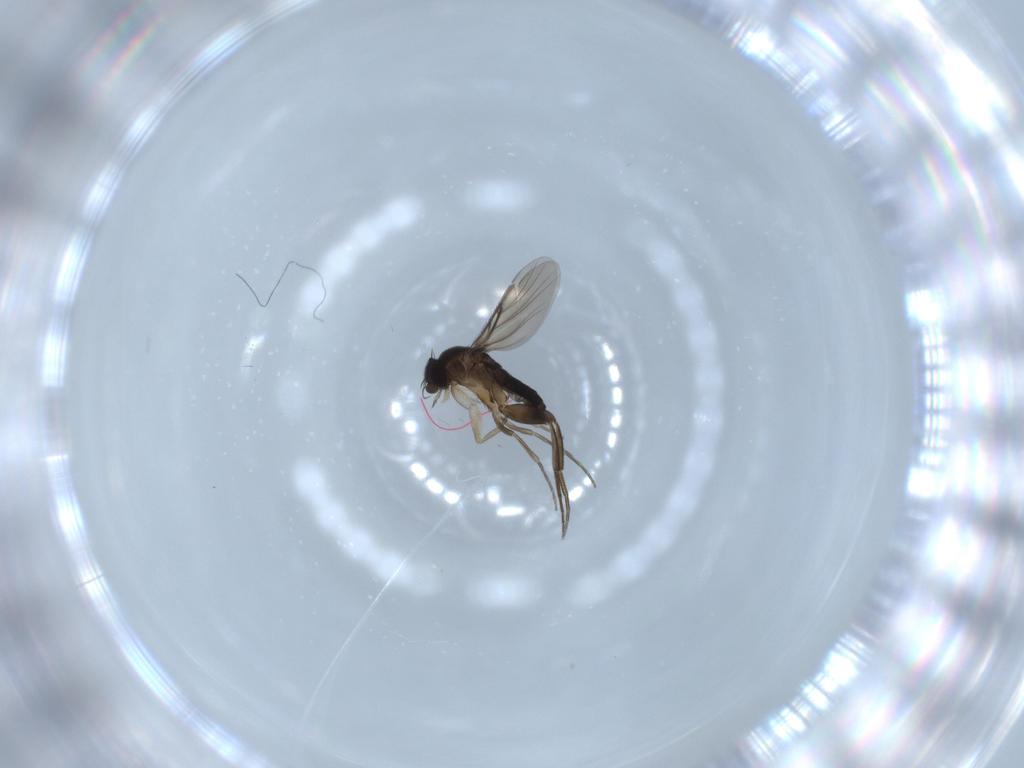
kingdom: Animalia
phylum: Arthropoda
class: Insecta
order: Diptera
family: Phoridae
